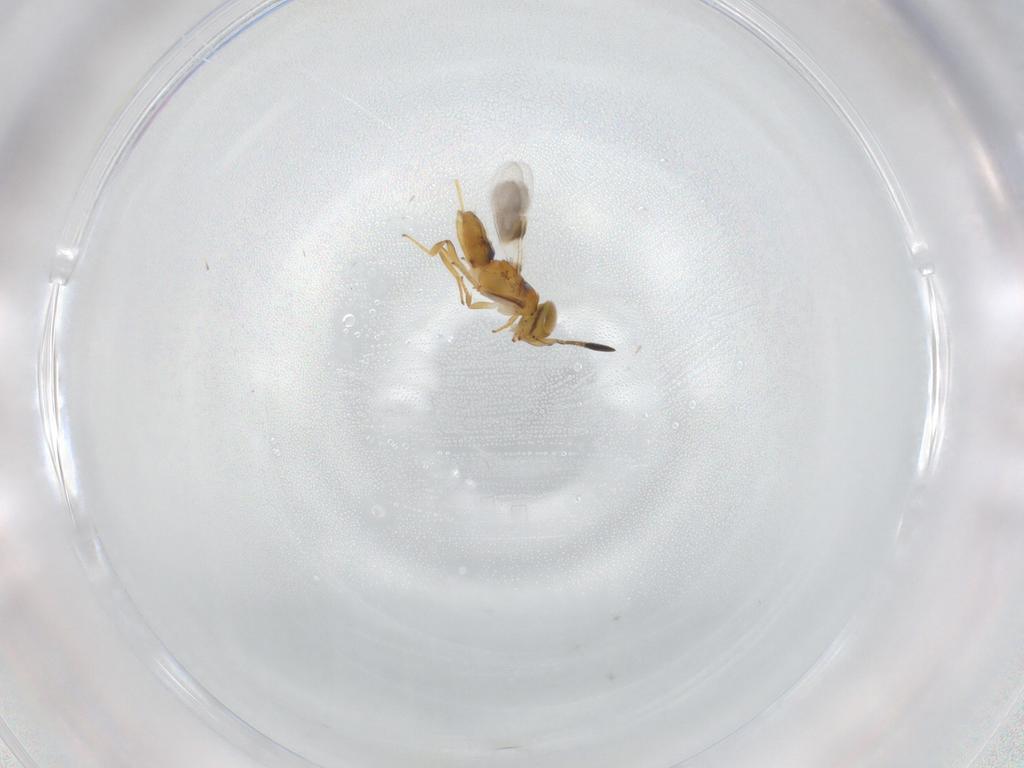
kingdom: Animalia
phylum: Arthropoda
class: Insecta
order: Hymenoptera
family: Encyrtidae
